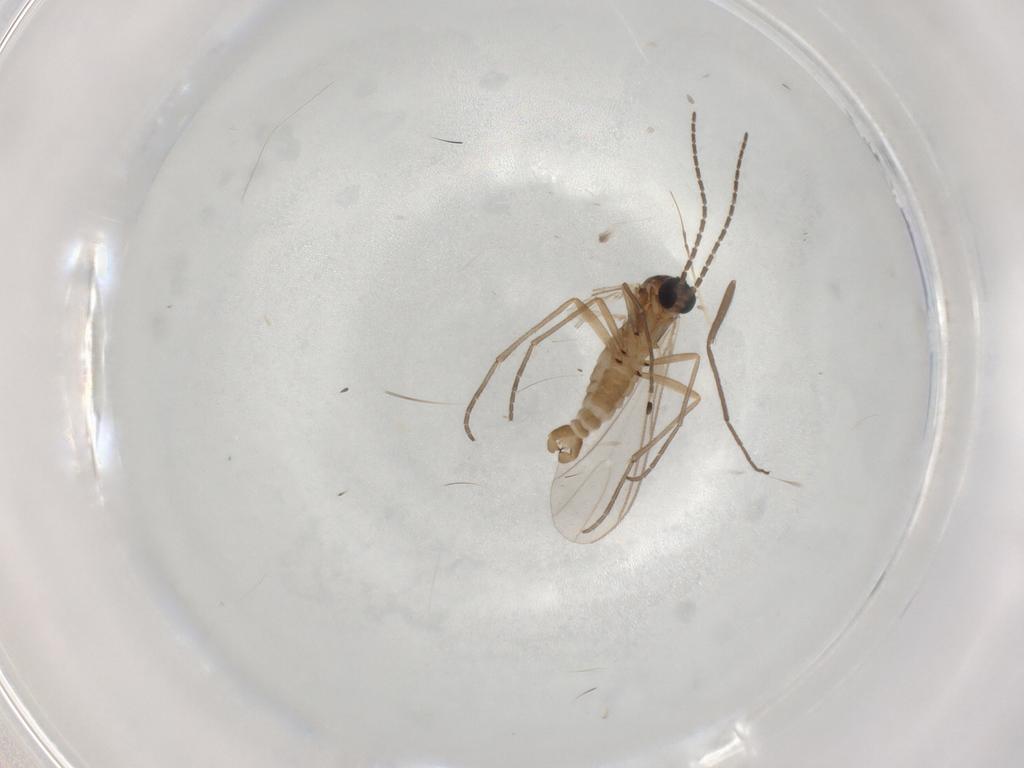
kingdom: Animalia
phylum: Arthropoda
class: Insecta
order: Diptera
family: Sciaridae
